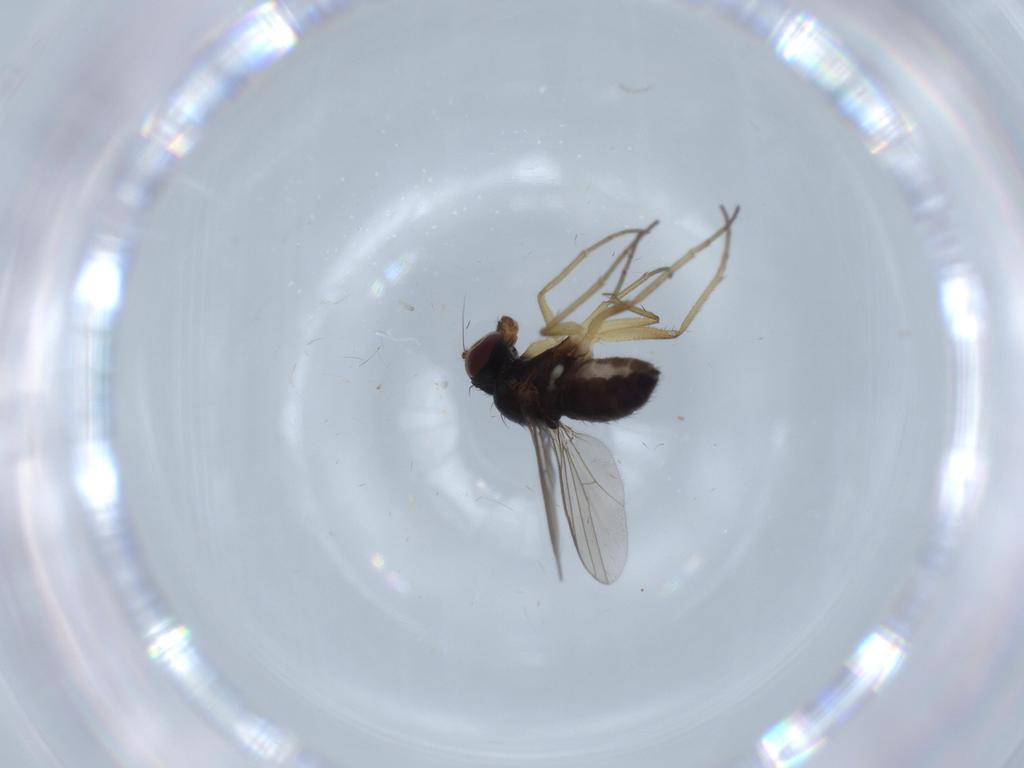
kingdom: Animalia
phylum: Arthropoda
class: Insecta
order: Diptera
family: Dolichopodidae
